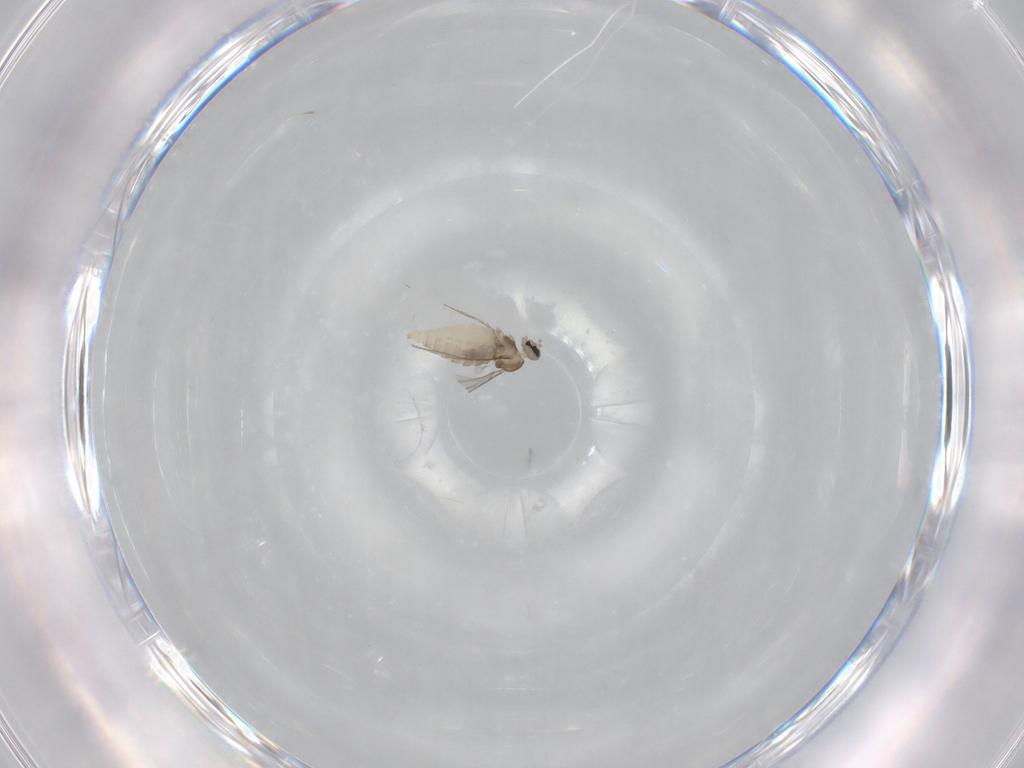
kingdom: Animalia
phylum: Arthropoda
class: Insecta
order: Diptera
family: Cecidomyiidae
